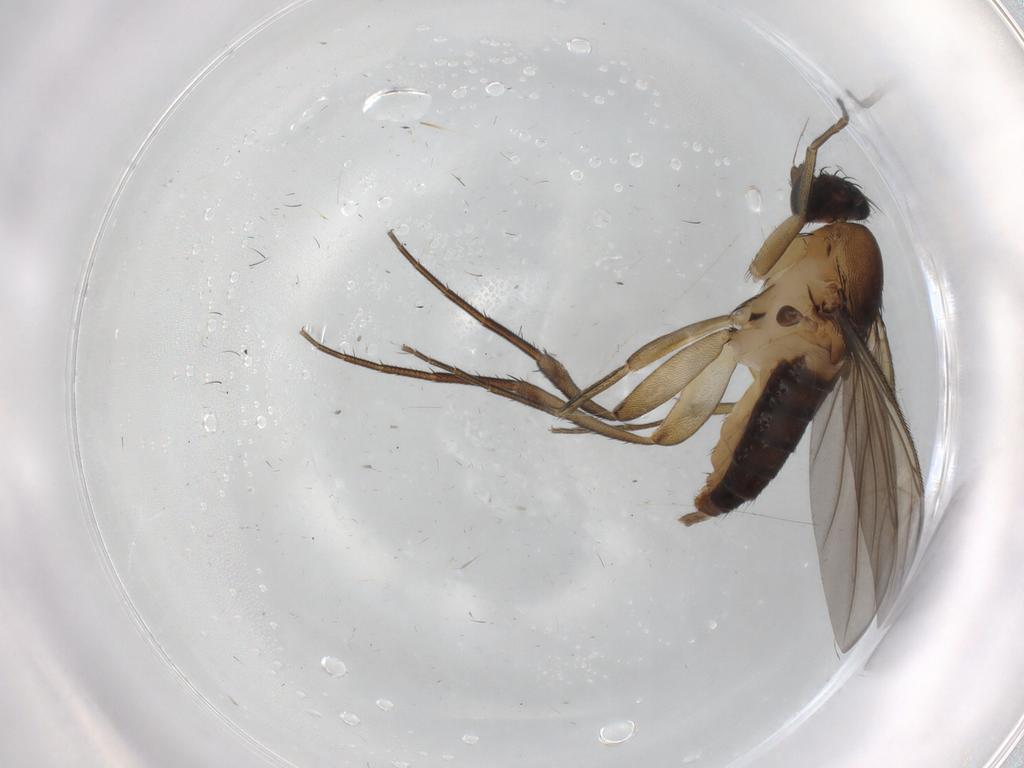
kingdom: Animalia
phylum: Arthropoda
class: Insecta
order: Diptera
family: Phoridae
